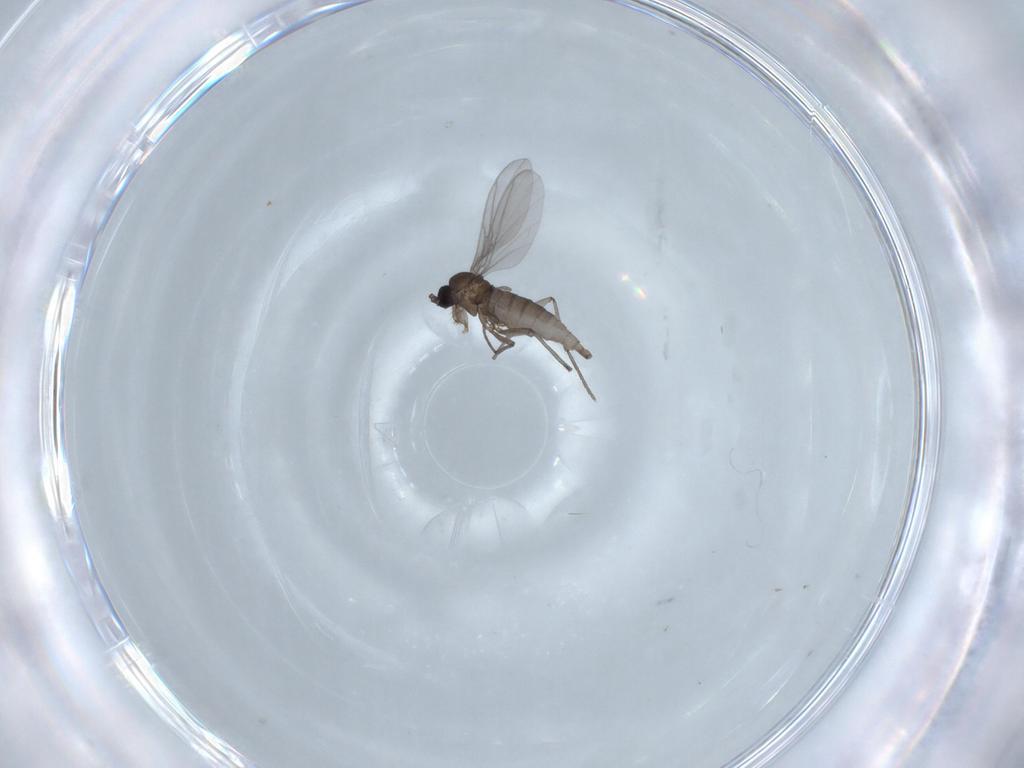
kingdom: Animalia
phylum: Arthropoda
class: Insecta
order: Diptera
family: Sciaridae
